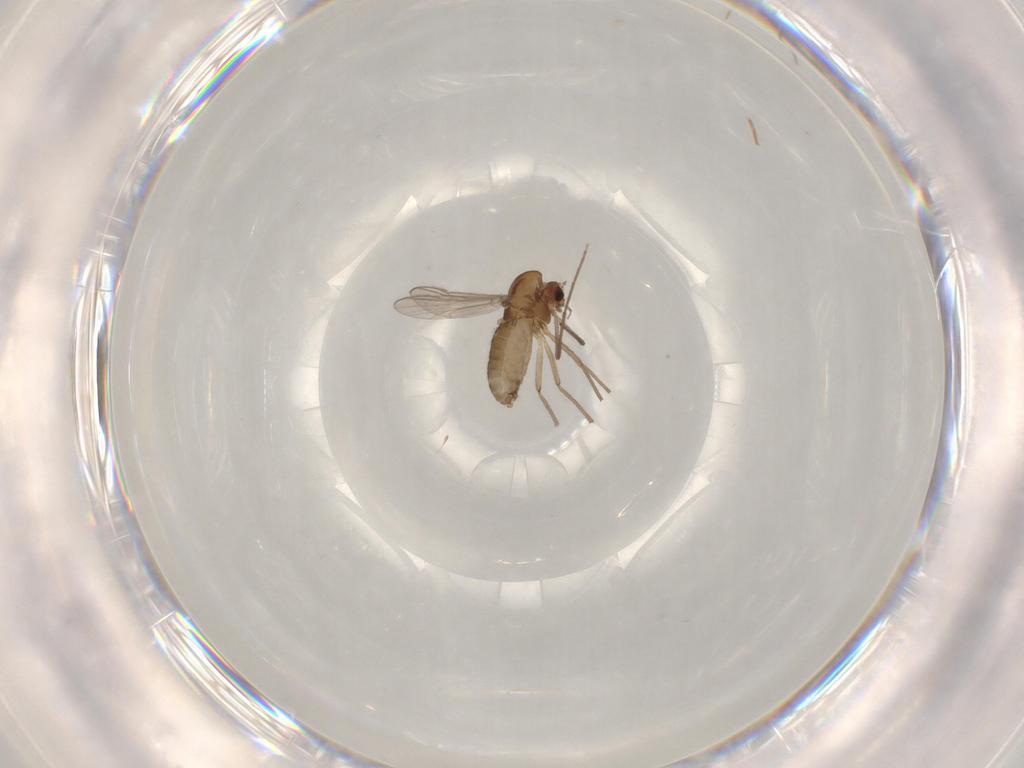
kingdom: Animalia
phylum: Arthropoda
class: Insecta
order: Diptera
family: Chironomidae
